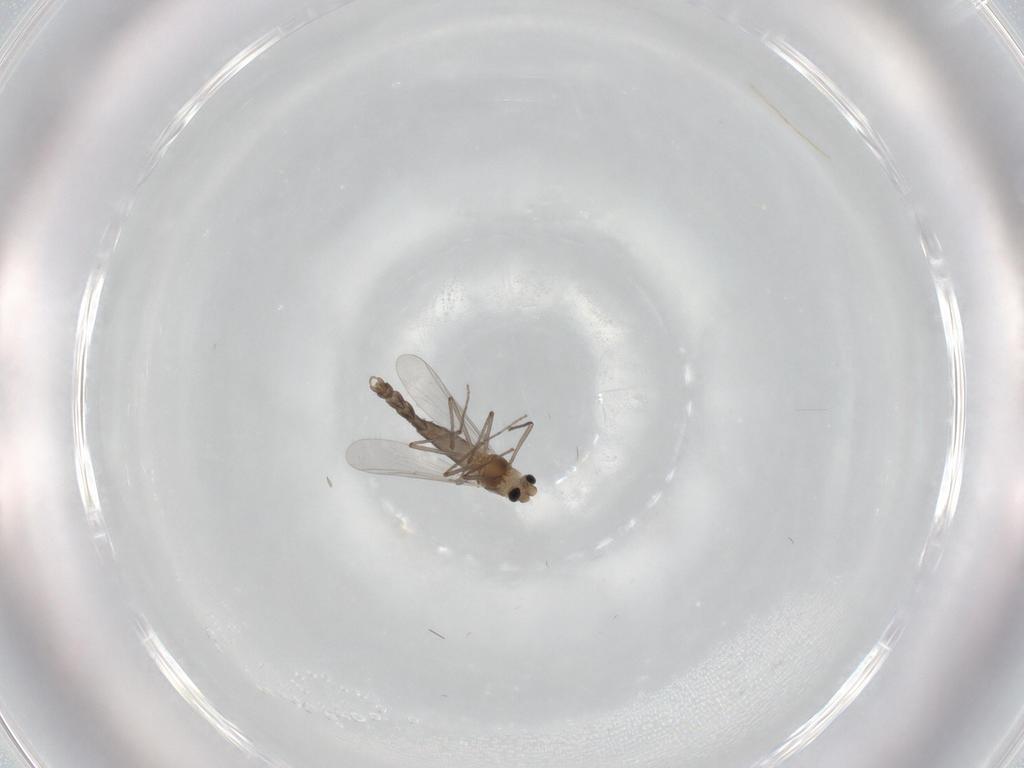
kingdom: Animalia
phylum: Arthropoda
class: Insecta
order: Diptera
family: Chironomidae
